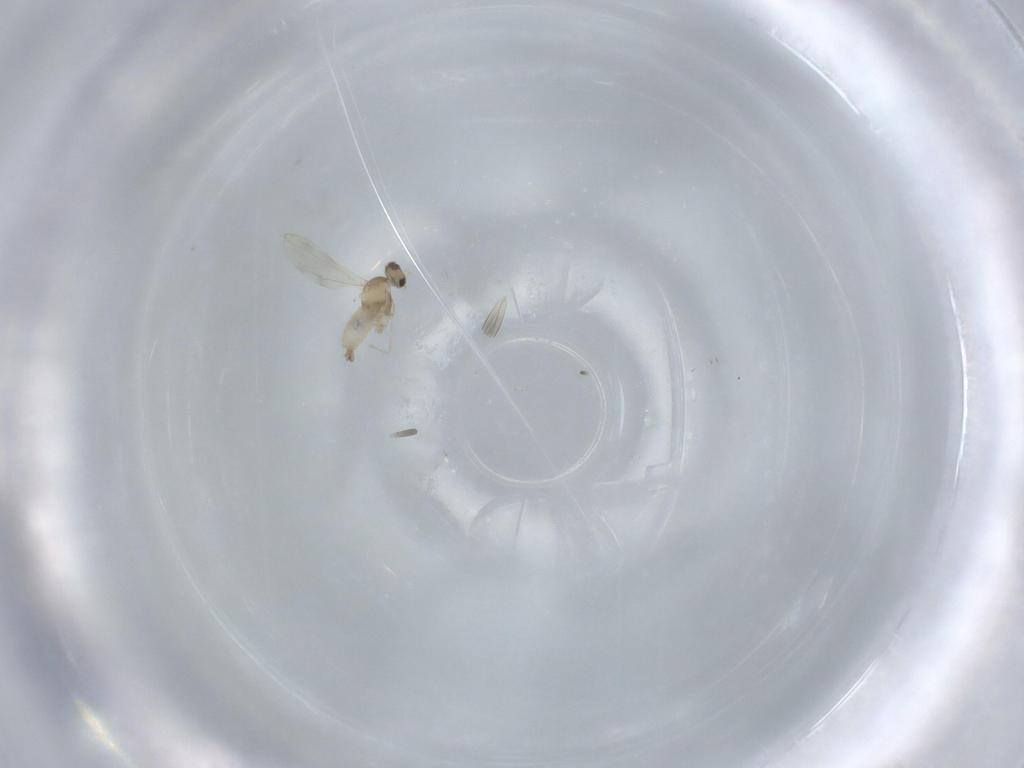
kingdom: Animalia
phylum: Arthropoda
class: Insecta
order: Diptera
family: Cecidomyiidae
